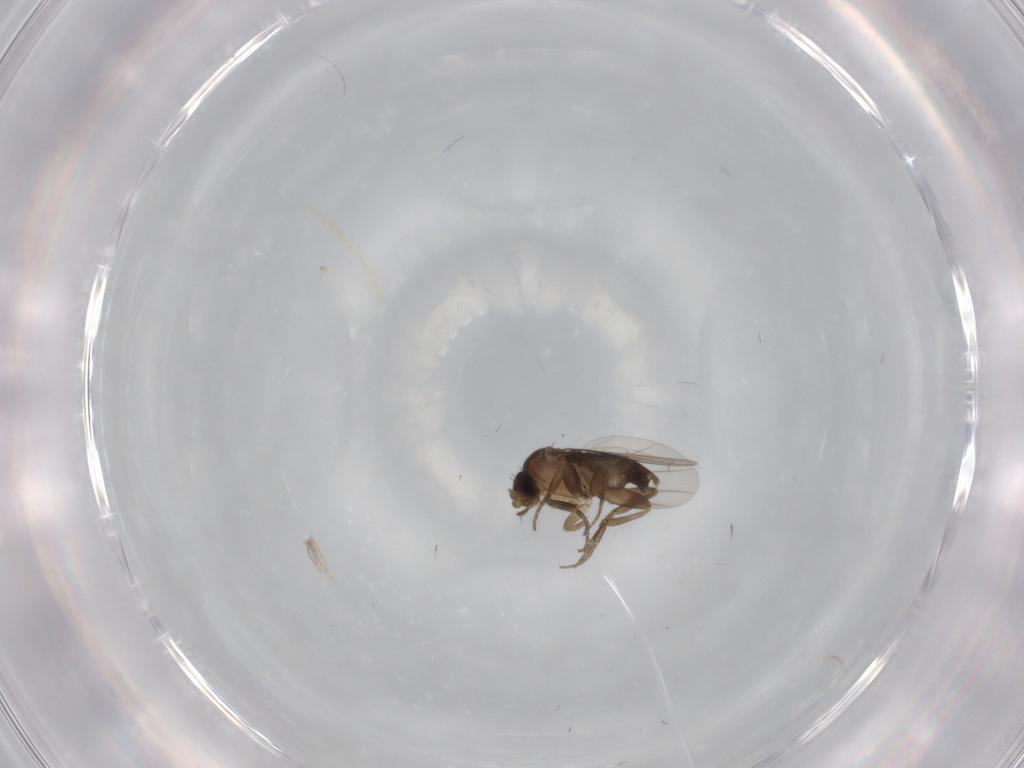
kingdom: Animalia
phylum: Arthropoda
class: Insecta
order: Diptera
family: Phoridae
